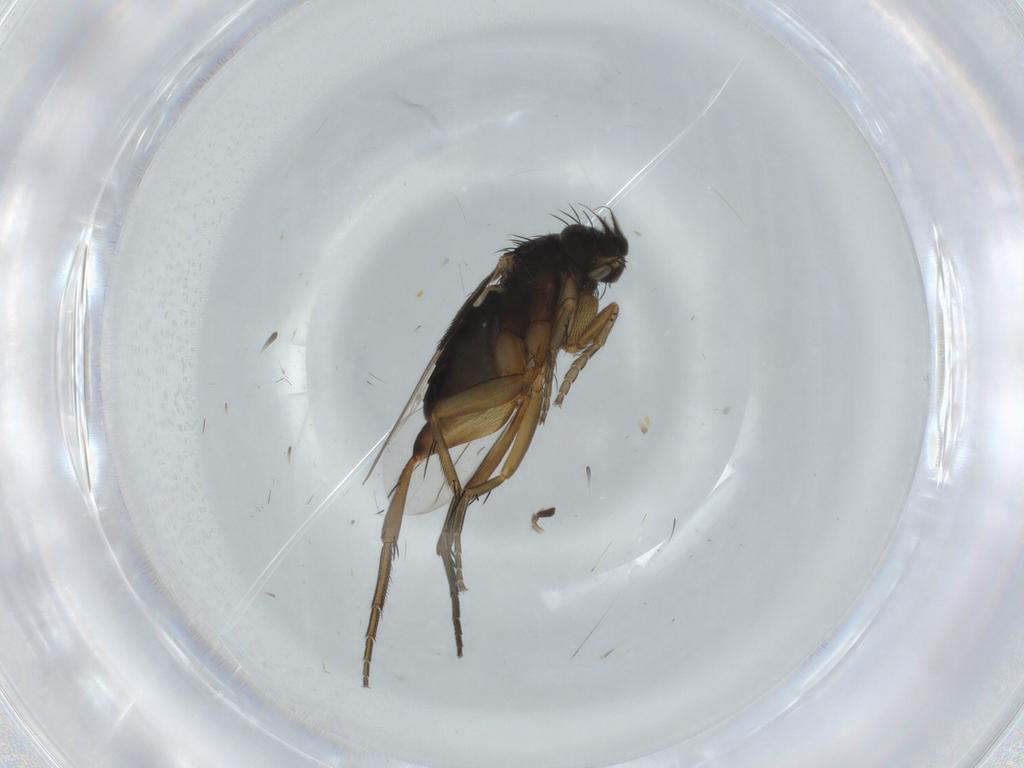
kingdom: Animalia
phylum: Arthropoda
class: Insecta
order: Diptera
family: Phoridae
